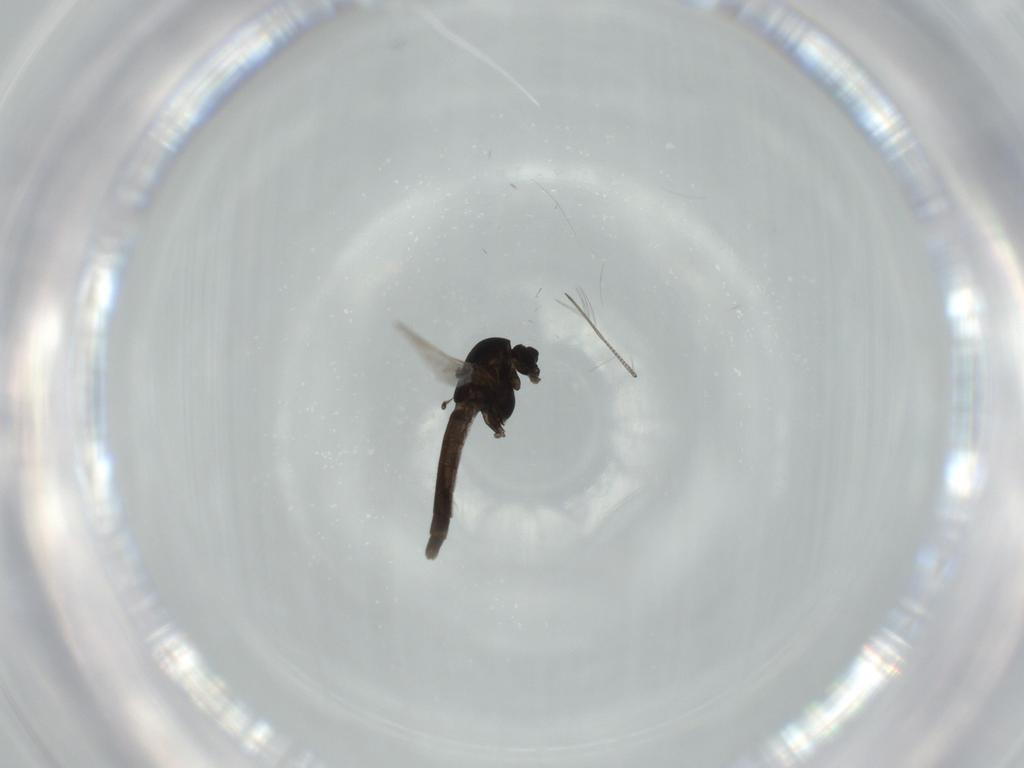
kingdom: Animalia
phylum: Arthropoda
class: Insecta
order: Diptera
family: Chironomidae
